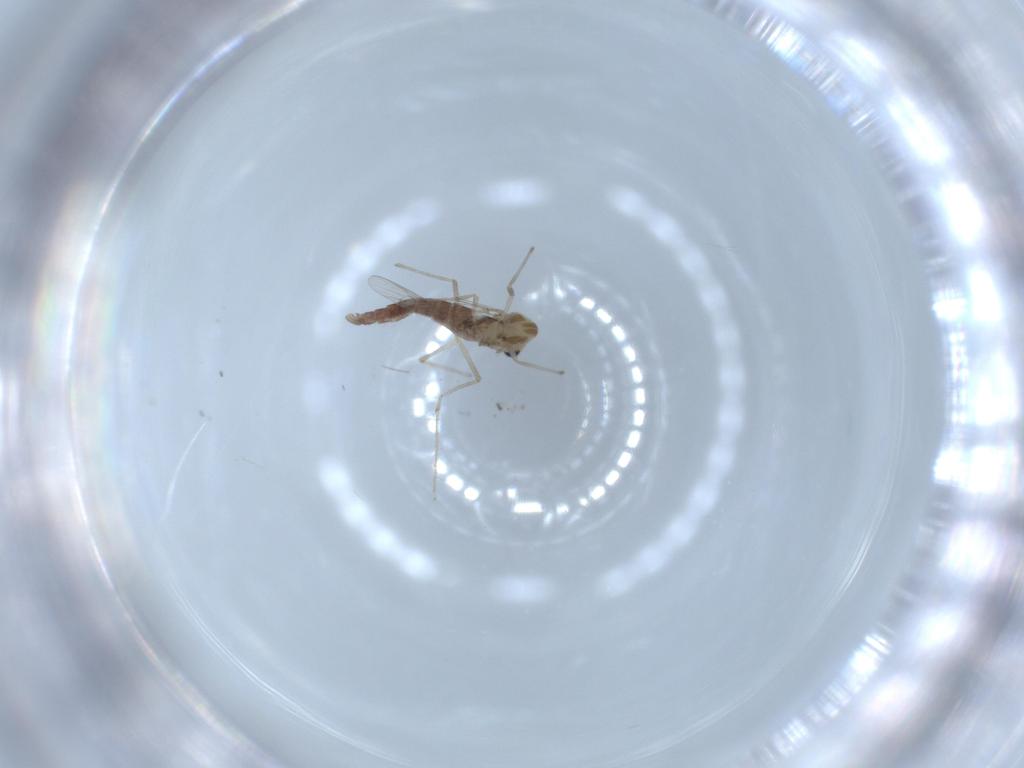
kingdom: Animalia
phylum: Arthropoda
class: Insecta
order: Diptera
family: Chironomidae
